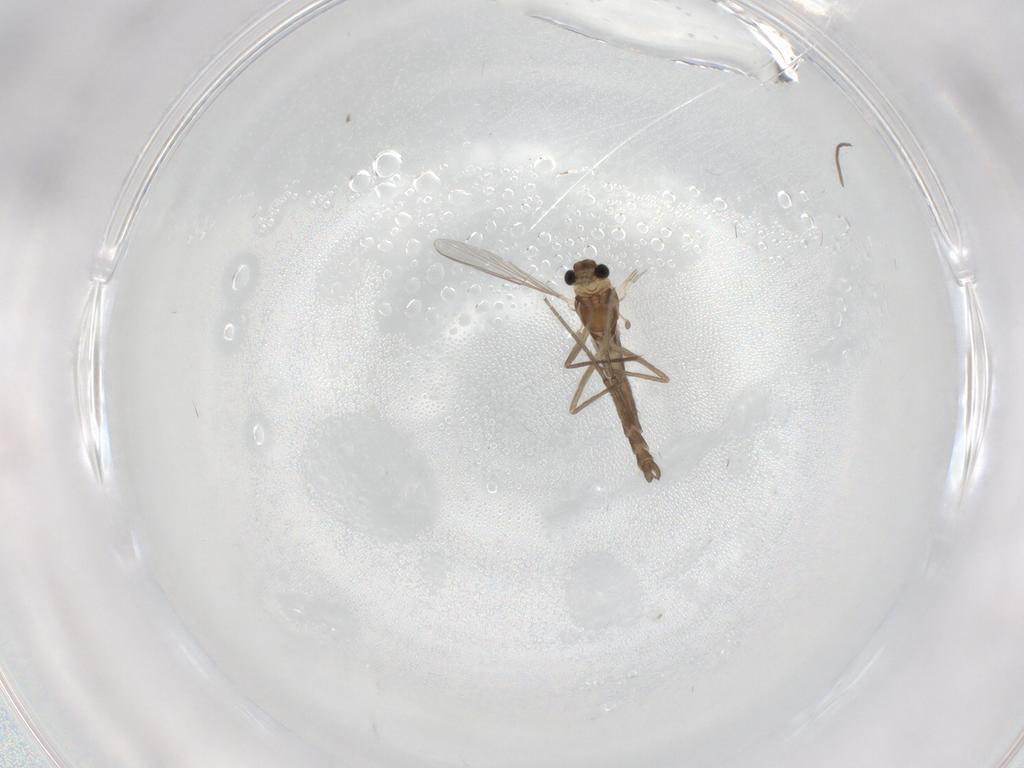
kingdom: Animalia
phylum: Arthropoda
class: Insecta
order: Diptera
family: Chironomidae
